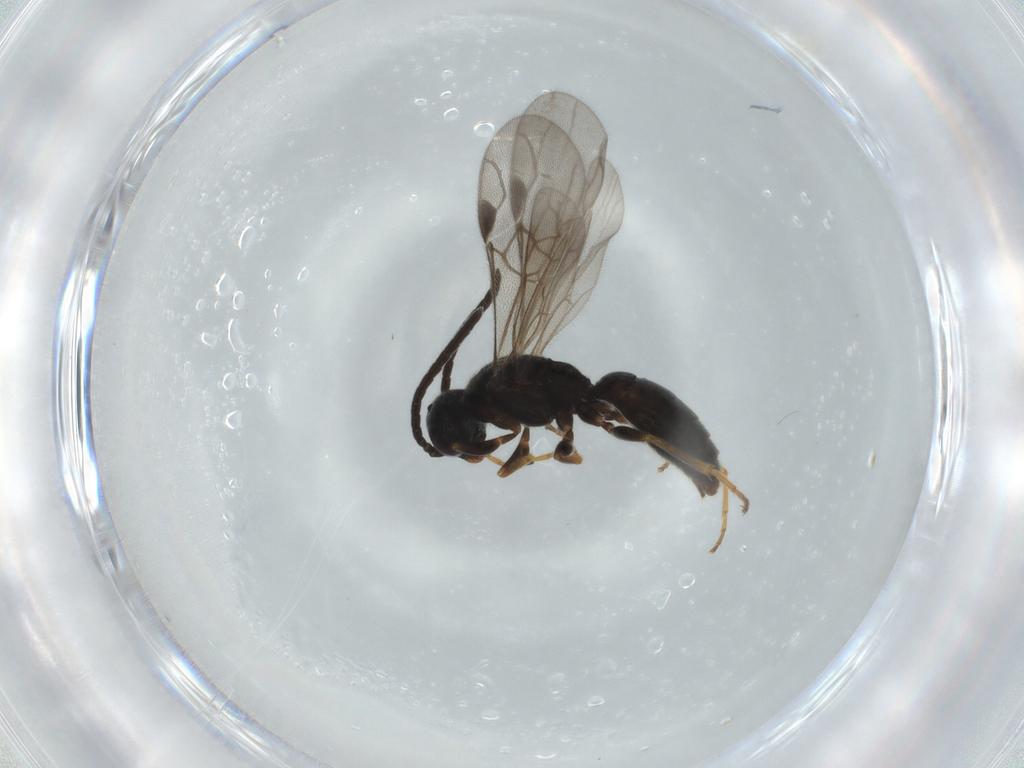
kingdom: Animalia
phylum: Arthropoda
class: Insecta
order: Hymenoptera
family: Sierolomorphidae
